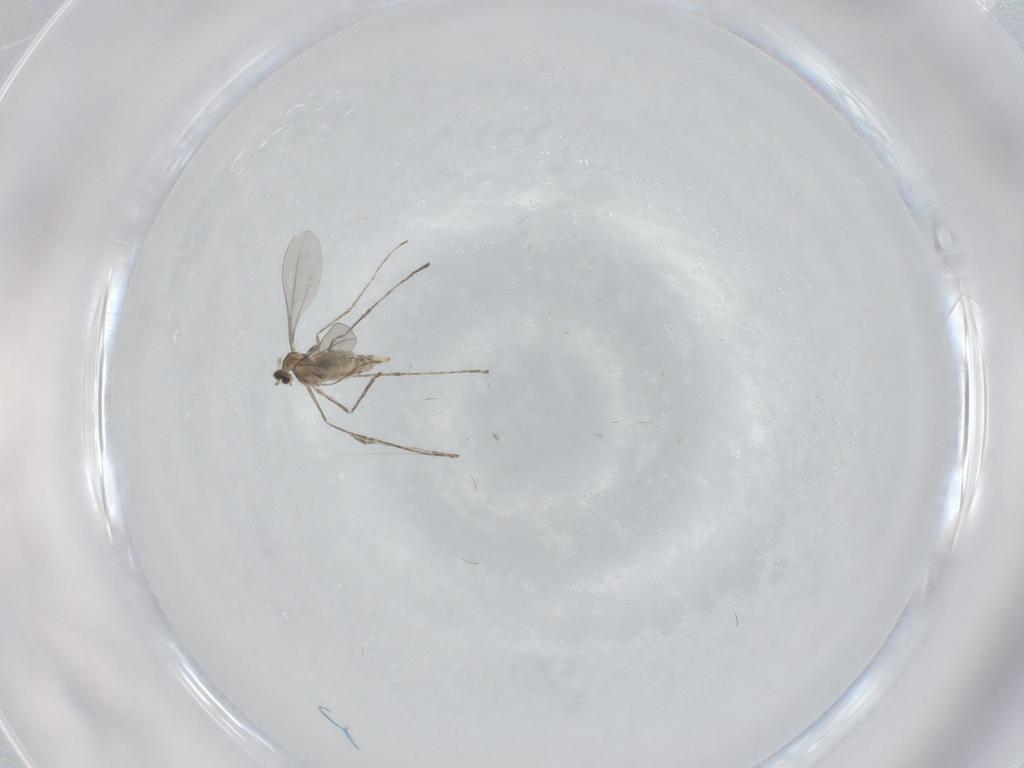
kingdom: Animalia
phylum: Arthropoda
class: Insecta
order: Diptera
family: Cecidomyiidae
